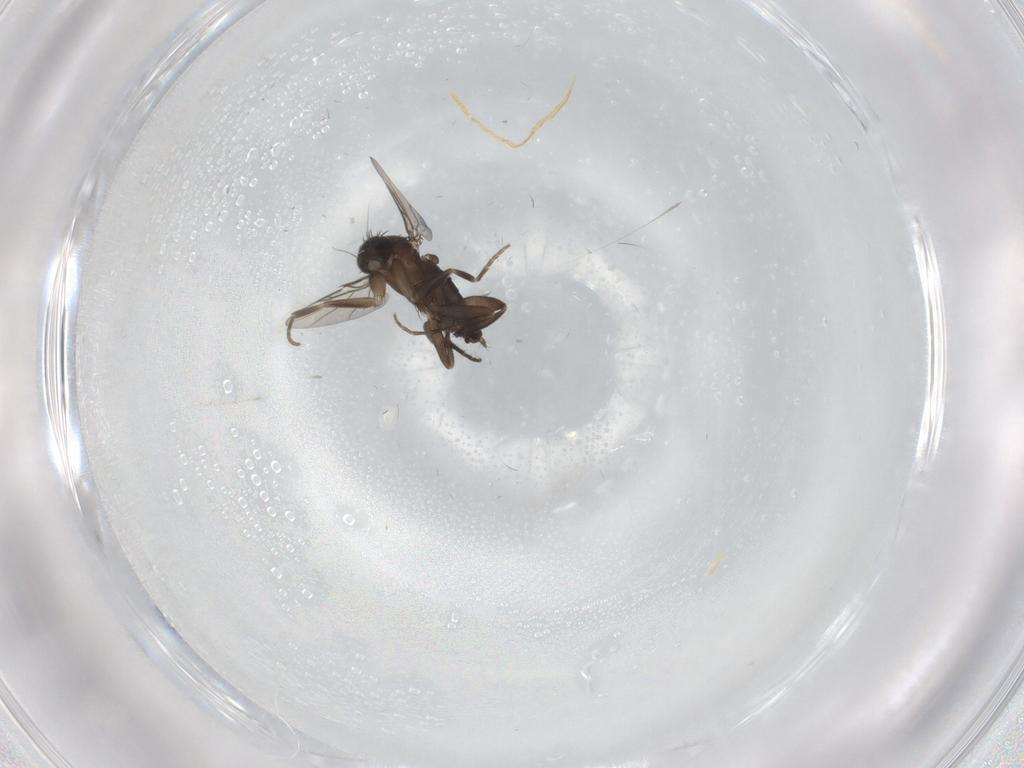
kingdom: Animalia
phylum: Arthropoda
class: Insecta
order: Diptera
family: Phoridae
